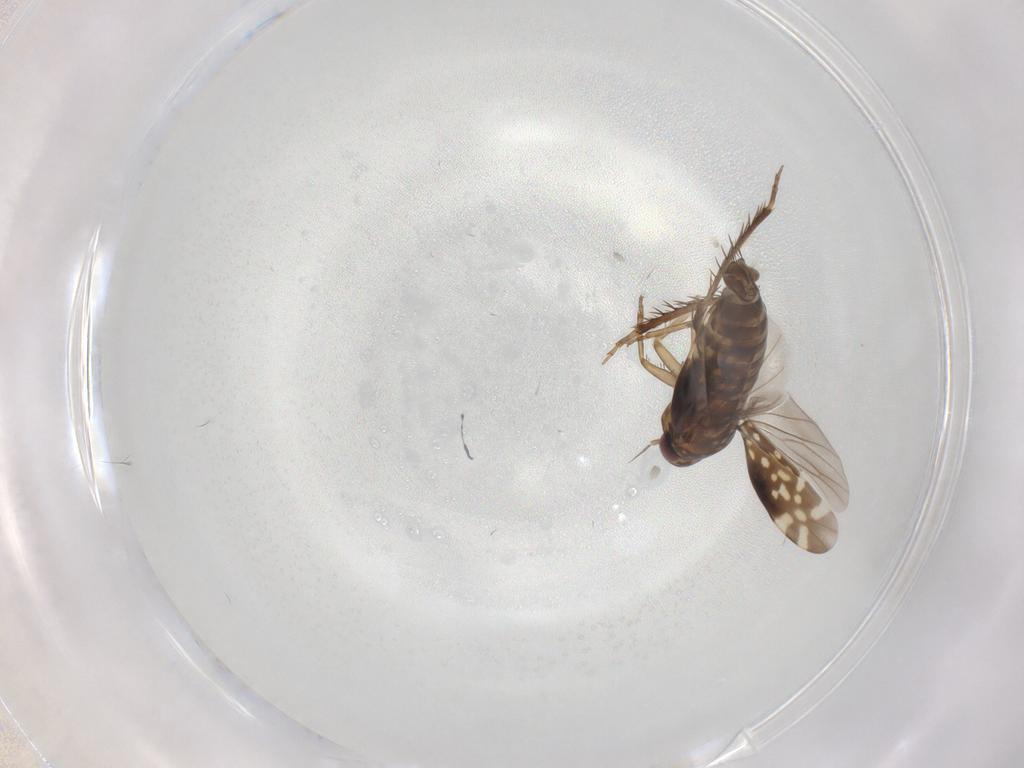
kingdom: Animalia
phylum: Arthropoda
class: Insecta
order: Hemiptera
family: Cicadellidae
